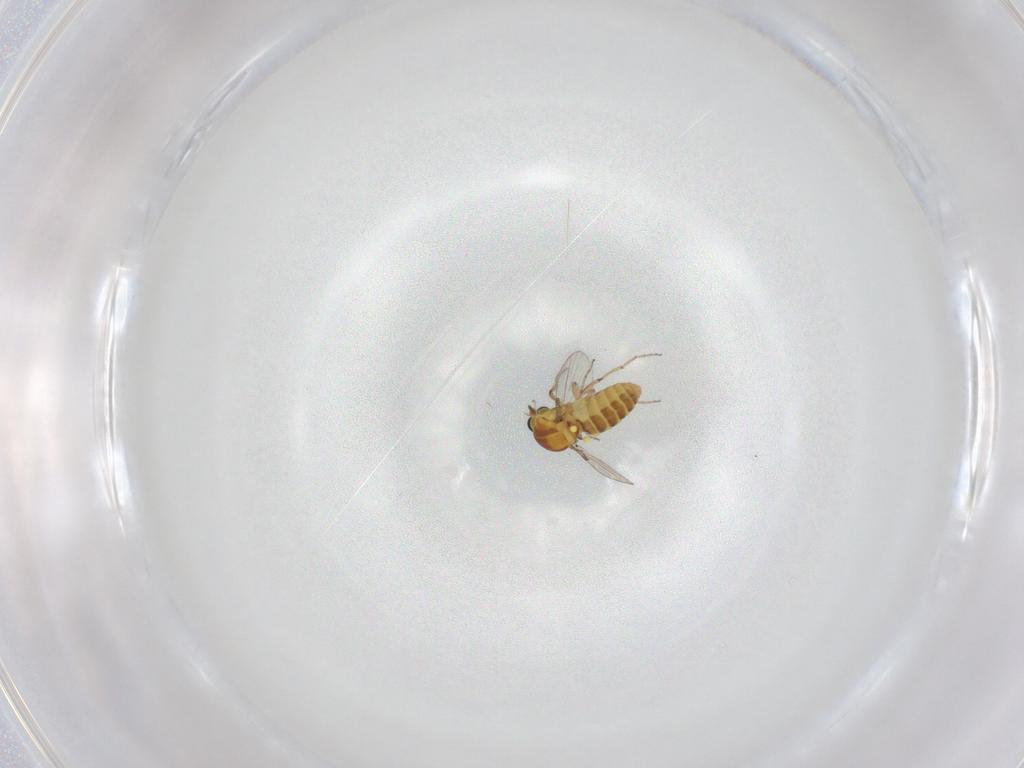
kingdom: Animalia
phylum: Arthropoda
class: Insecta
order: Diptera
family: Ceratopogonidae
